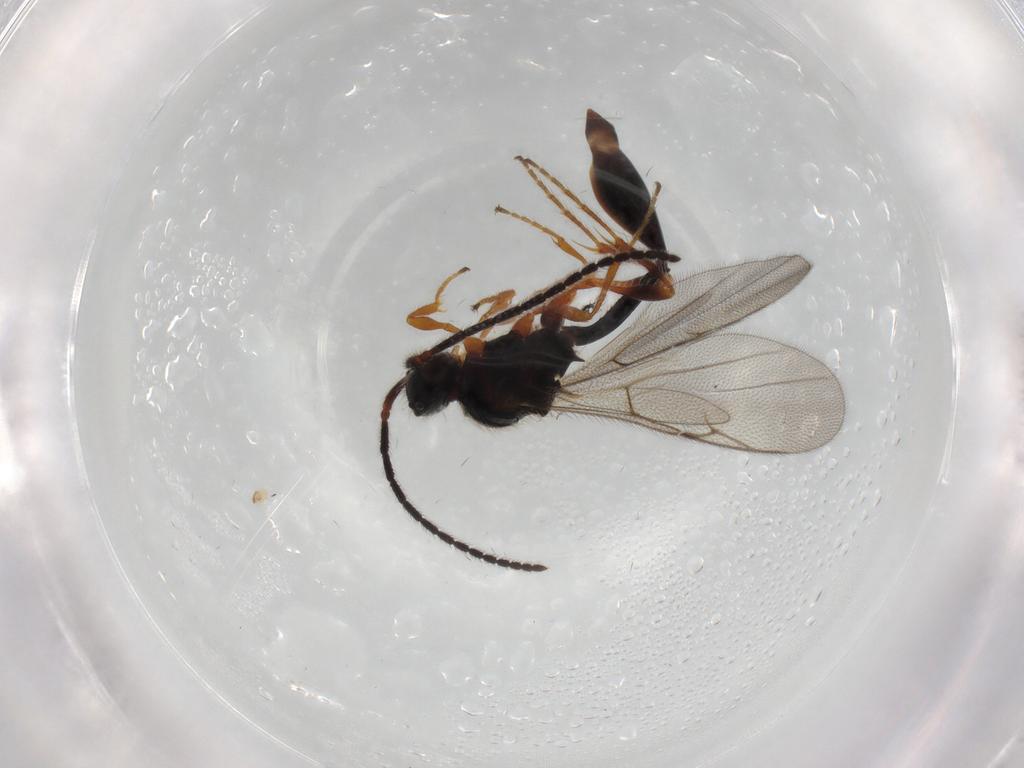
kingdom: Animalia
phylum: Arthropoda
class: Insecta
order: Hymenoptera
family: Diapriidae
